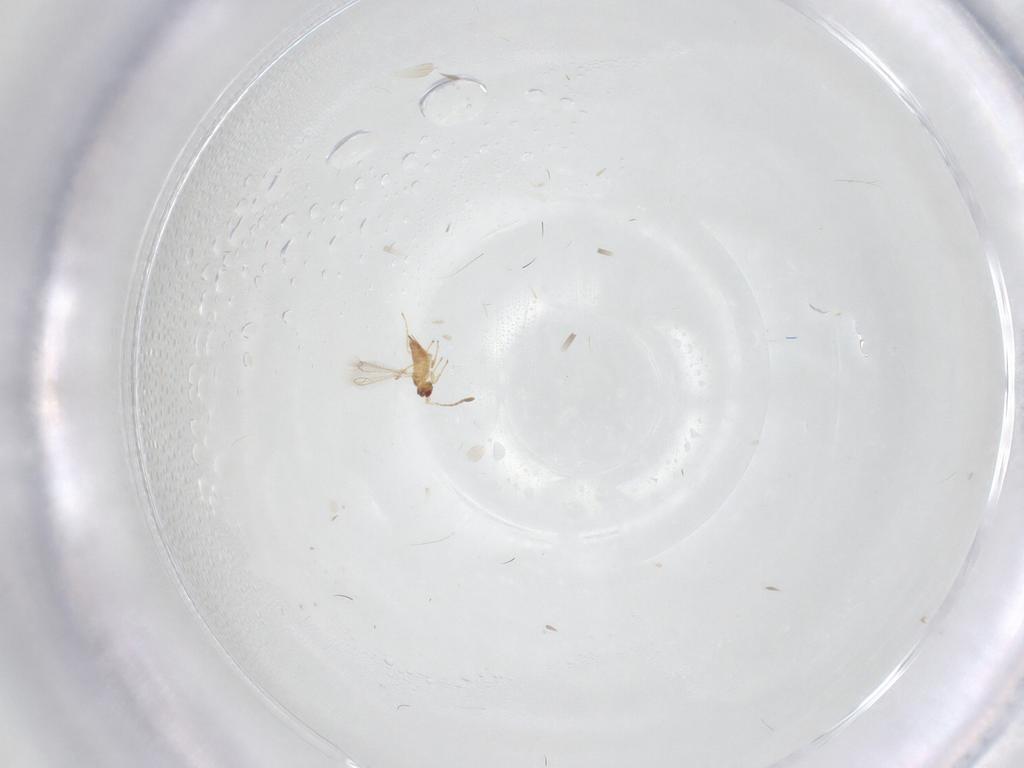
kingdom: Animalia
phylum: Arthropoda
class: Insecta
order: Hymenoptera
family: Mymaridae
